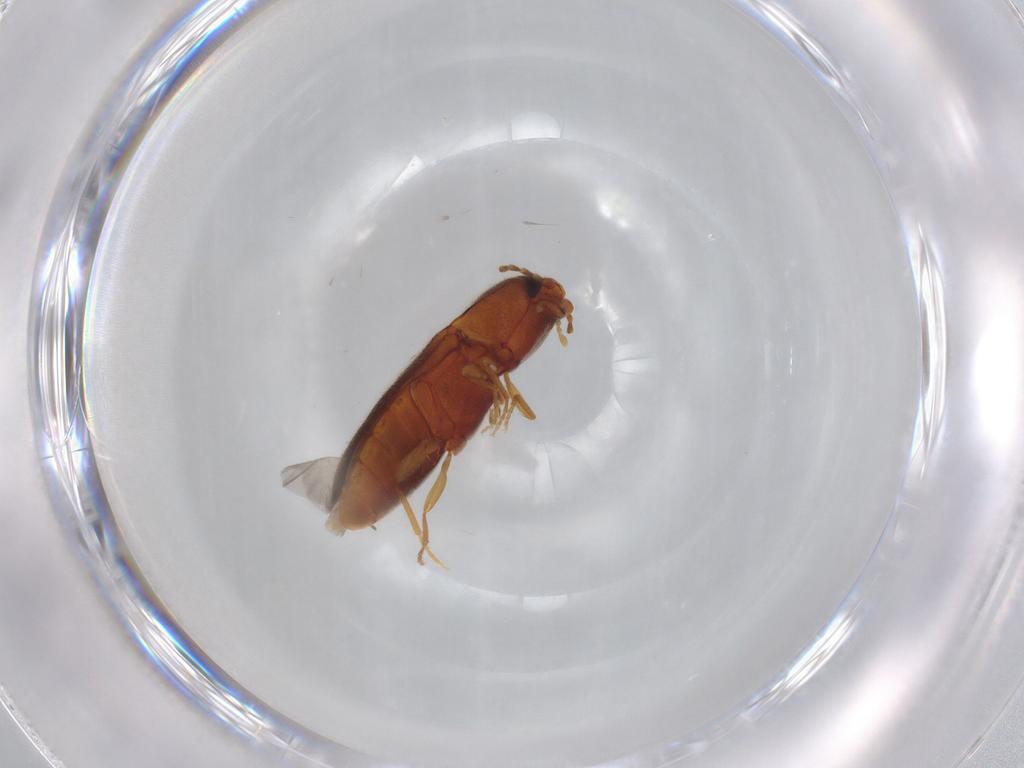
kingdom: Animalia
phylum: Arthropoda
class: Insecta
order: Coleoptera
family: Elateridae
